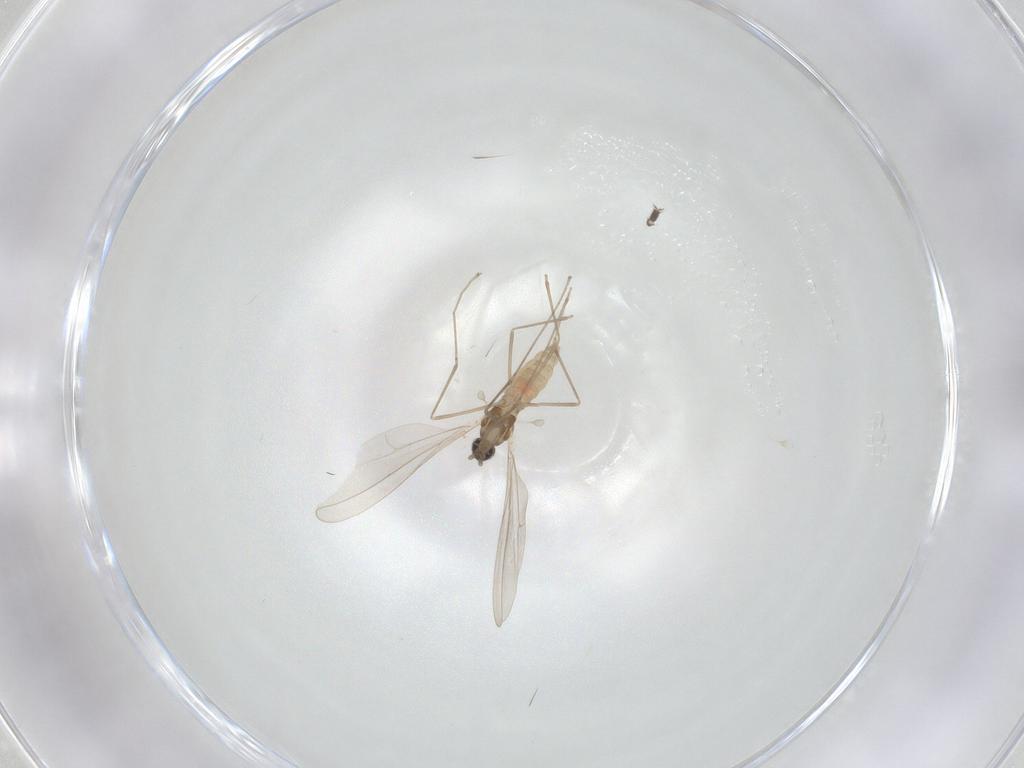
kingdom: Animalia
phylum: Arthropoda
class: Insecta
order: Diptera
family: Cecidomyiidae
